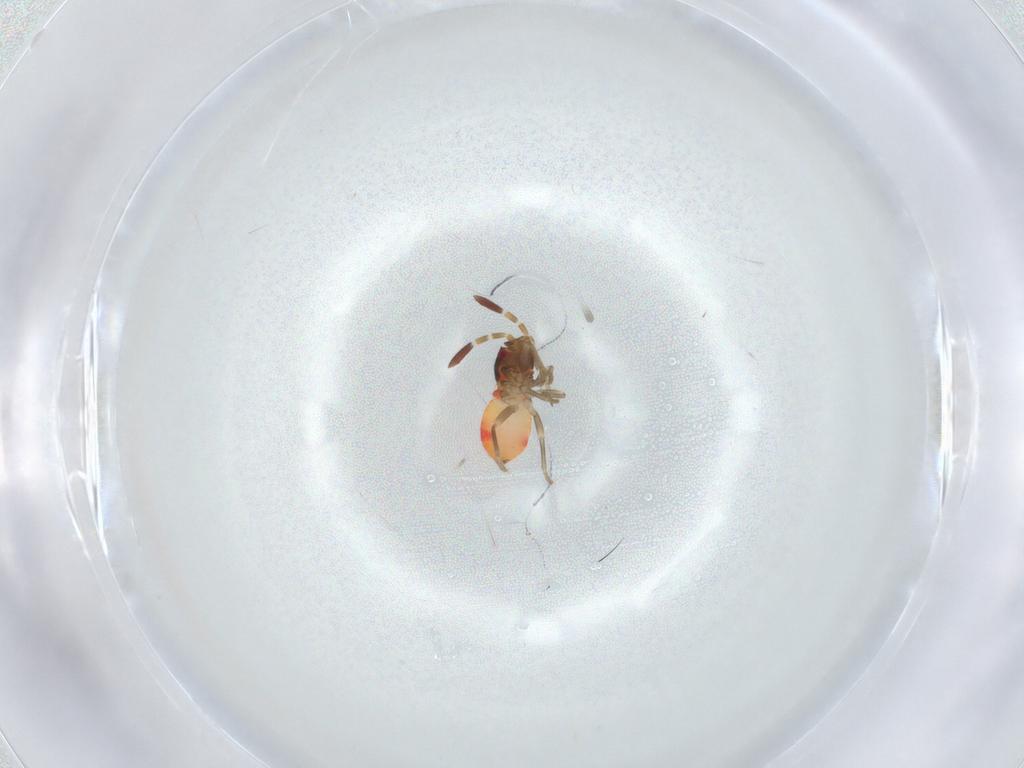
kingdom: Animalia
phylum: Arthropoda
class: Insecta
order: Hemiptera
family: Rhyparochromidae
